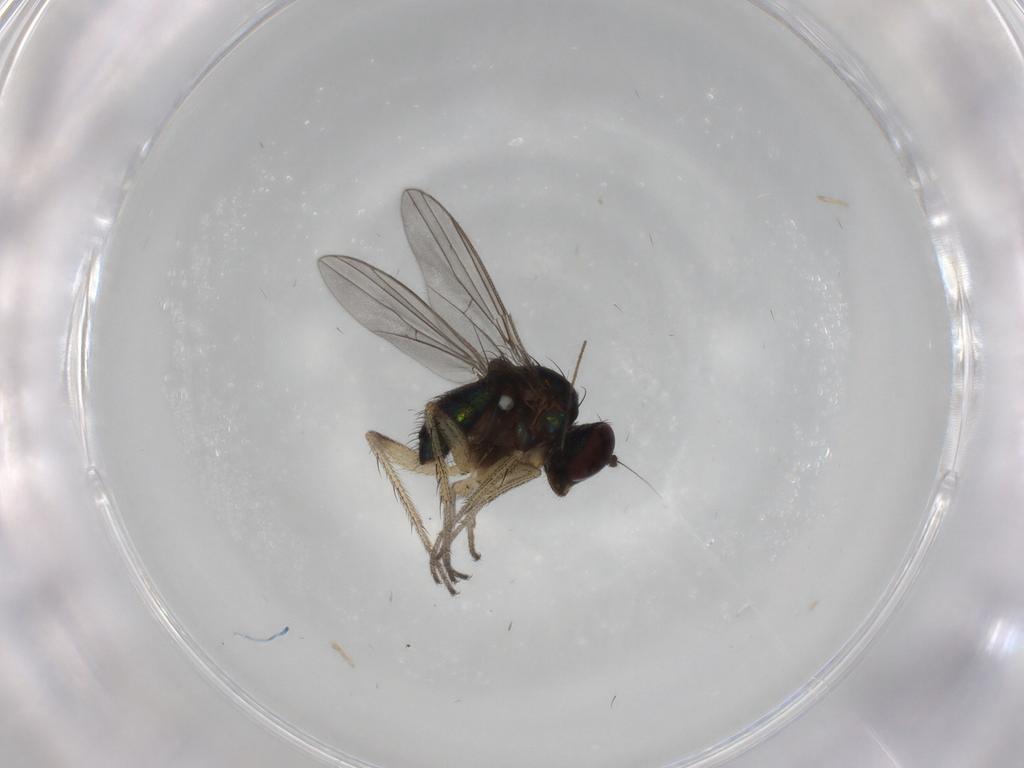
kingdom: Animalia
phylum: Arthropoda
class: Insecta
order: Diptera
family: Dolichopodidae
